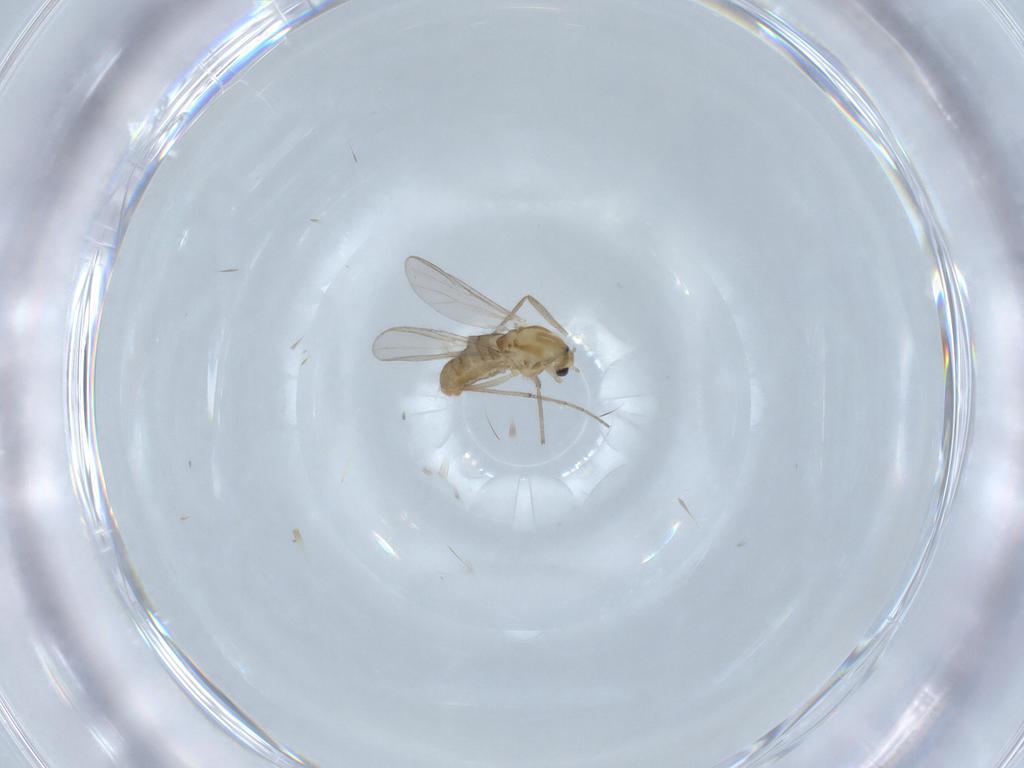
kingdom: Animalia
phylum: Arthropoda
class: Insecta
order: Diptera
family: Chironomidae
